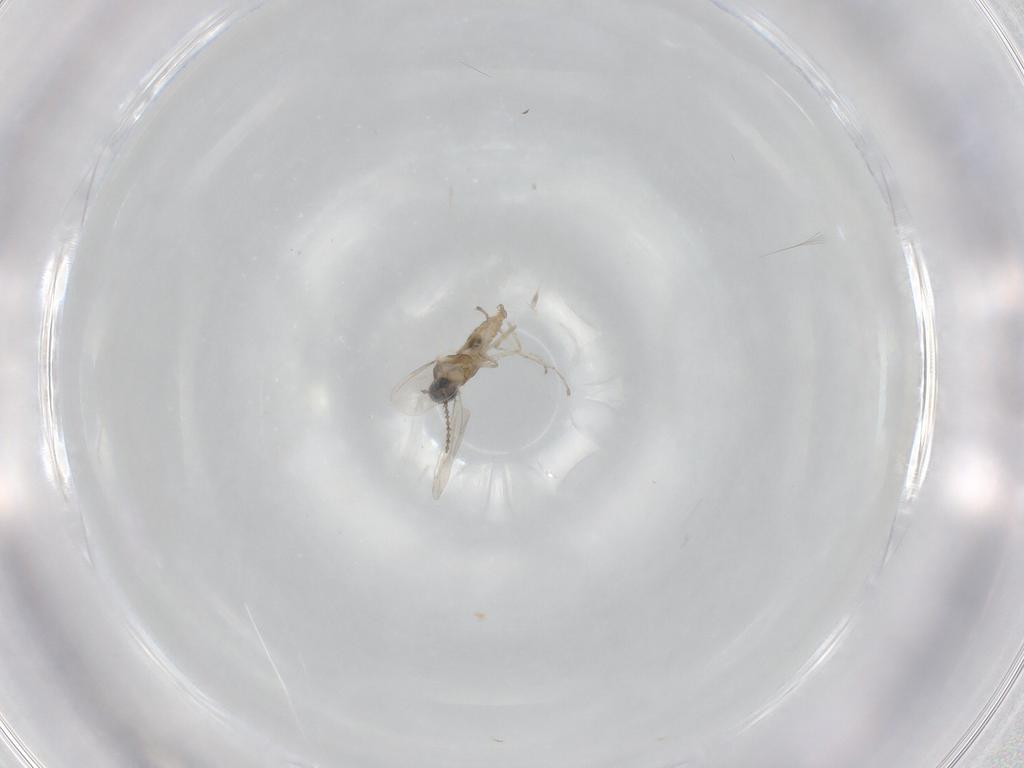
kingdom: Animalia
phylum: Arthropoda
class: Insecta
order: Diptera
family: Cecidomyiidae
